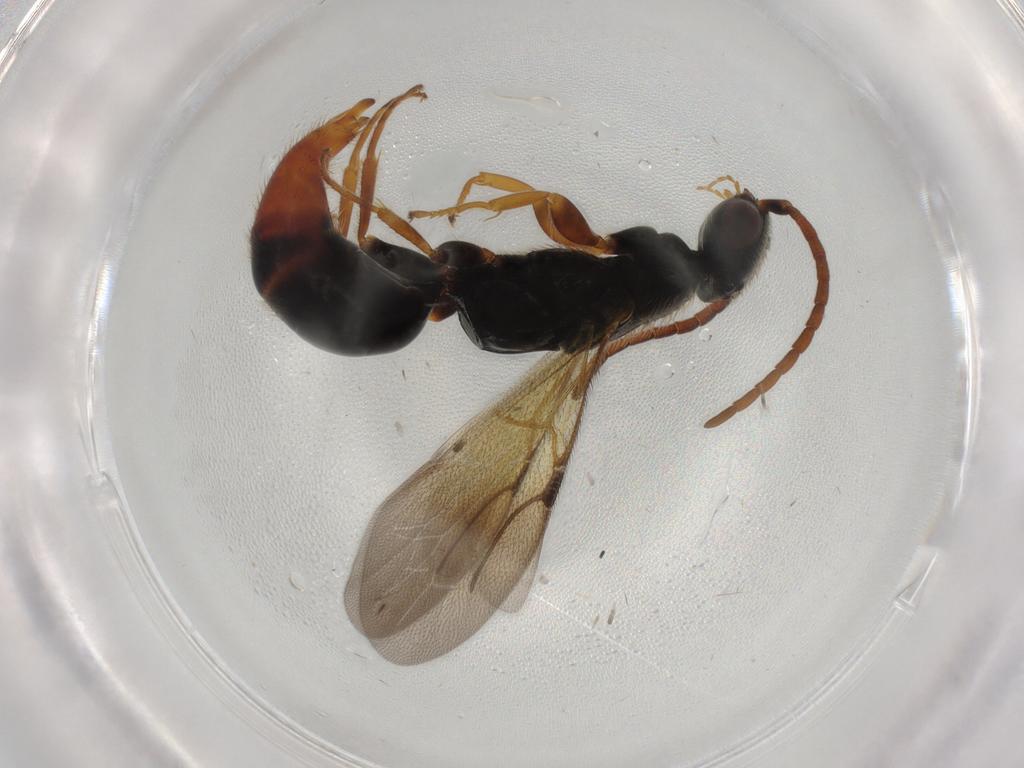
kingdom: Animalia
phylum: Arthropoda
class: Insecta
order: Hymenoptera
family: Bethylidae
